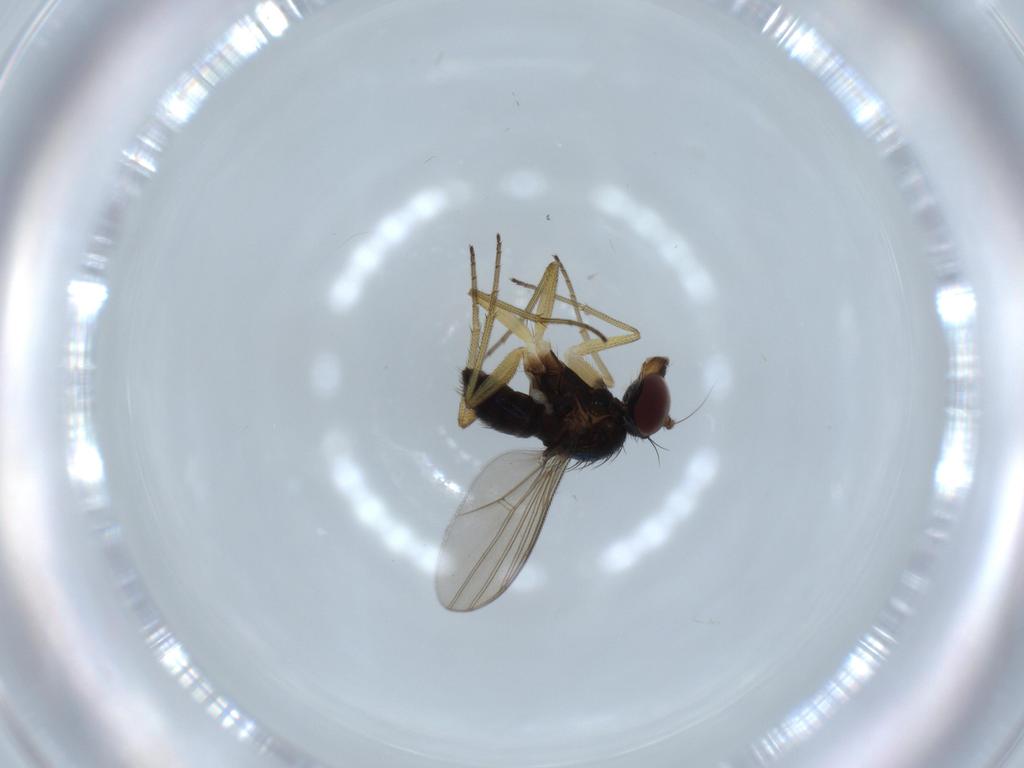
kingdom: Animalia
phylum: Arthropoda
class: Insecta
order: Diptera
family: Dolichopodidae
